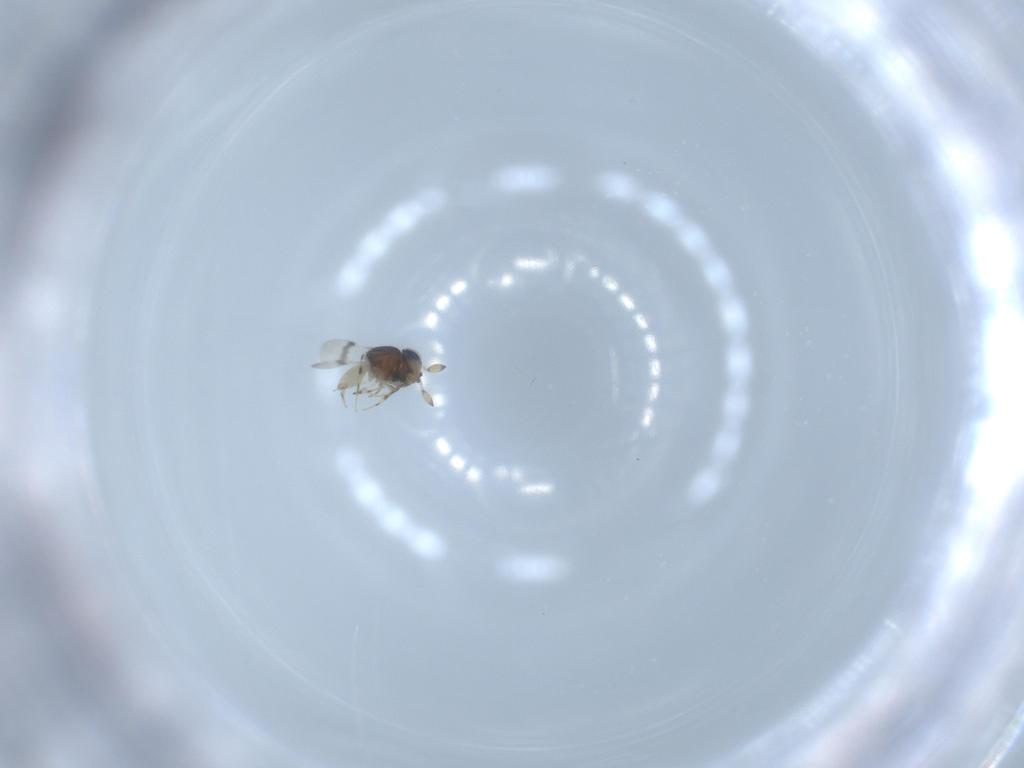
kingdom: Animalia
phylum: Arthropoda
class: Insecta
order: Hymenoptera
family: Scelionidae
